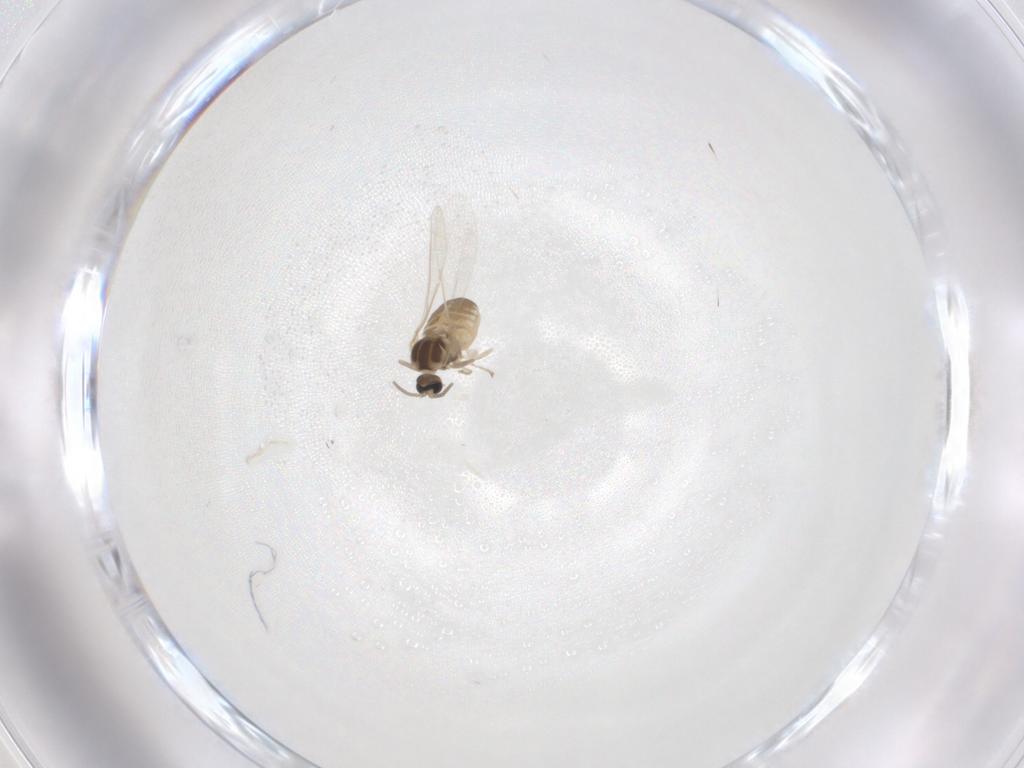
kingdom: Animalia
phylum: Arthropoda
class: Insecta
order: Diptera
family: Cecidomyiidae
